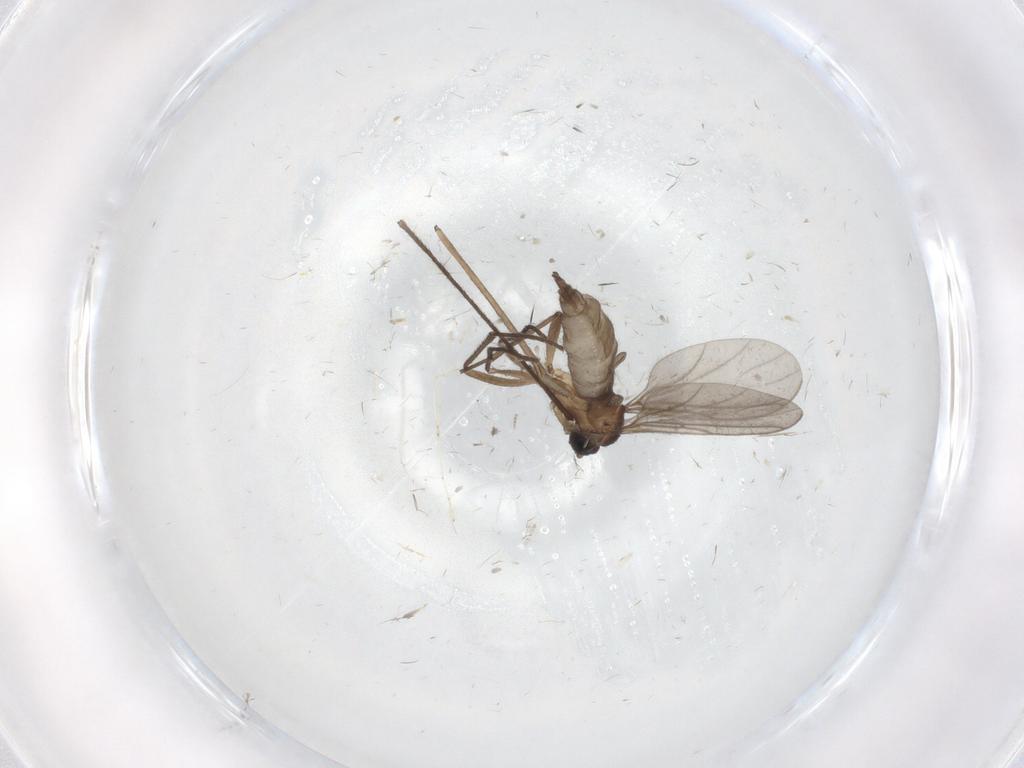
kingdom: Animalia
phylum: Arthropoda
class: Insecta
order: Diptera
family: Limoniidae
